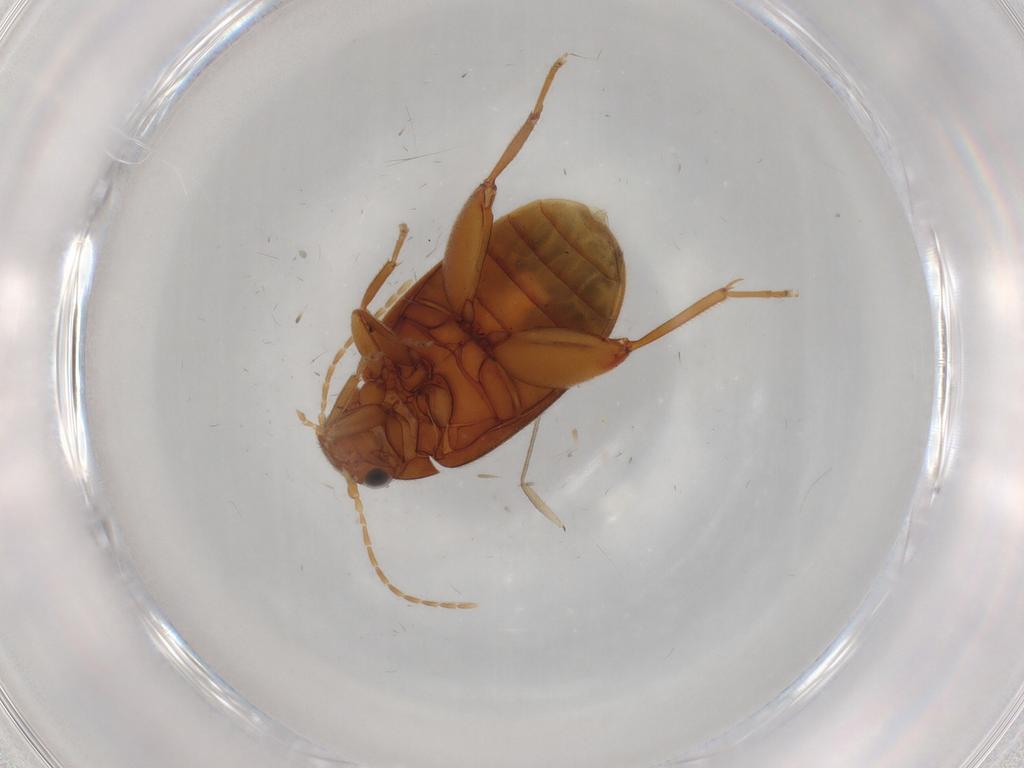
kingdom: Animalia
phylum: Arthropoda
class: Insecta
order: Coleoptera
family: Scirtidae
